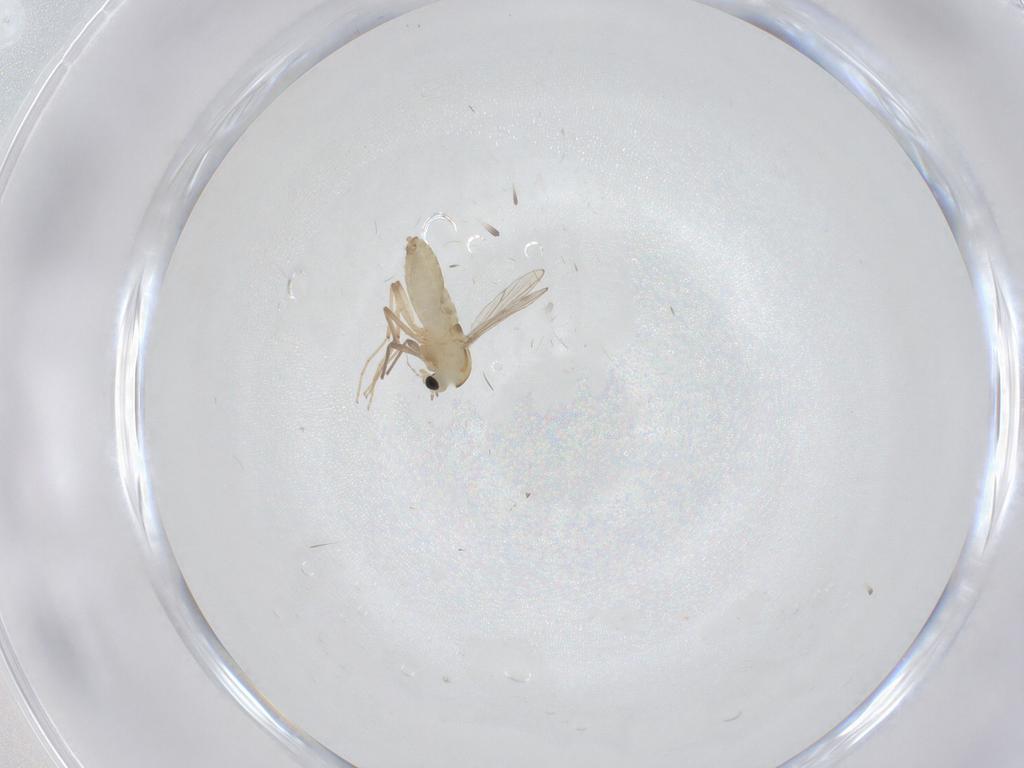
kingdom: Animalia
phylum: Arthropoda
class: Insecta
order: Diptera
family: Chironomidae
